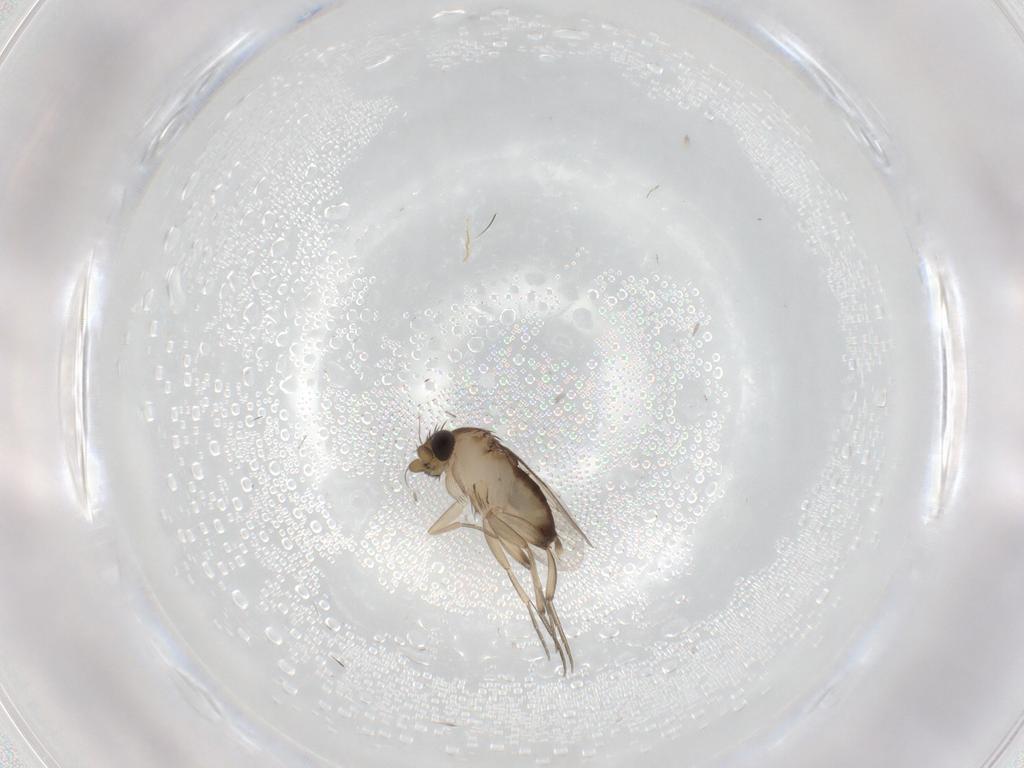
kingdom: Animalia
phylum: Arthropoda
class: Insecta
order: Diptera
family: Phoridae
